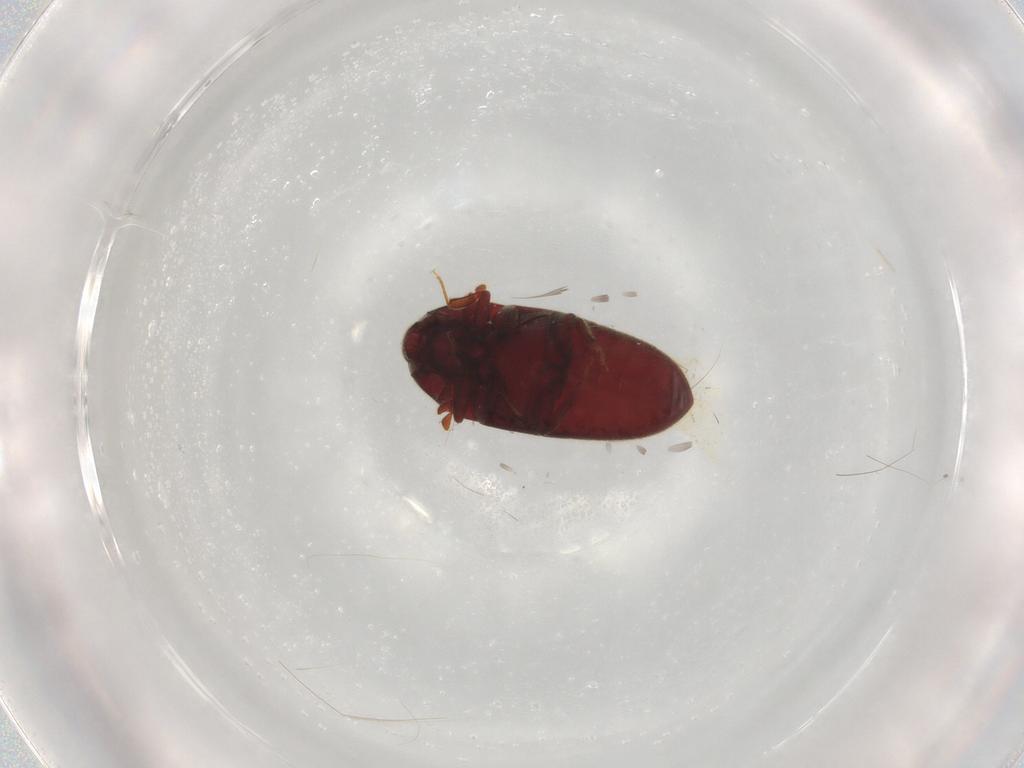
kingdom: Animalia
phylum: Arthropoda
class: Insecta
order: Coleoptera
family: Throscidae
